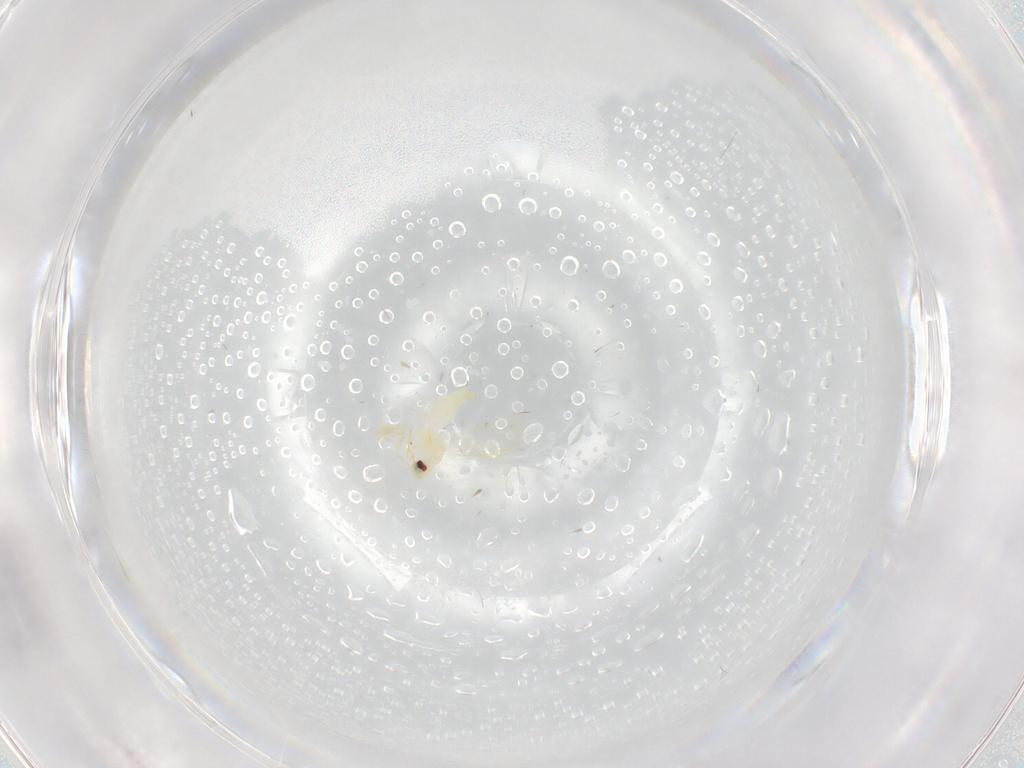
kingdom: Animalia
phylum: Arthropoda
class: Insecta
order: Hemiptera
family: Aleyrodidae
